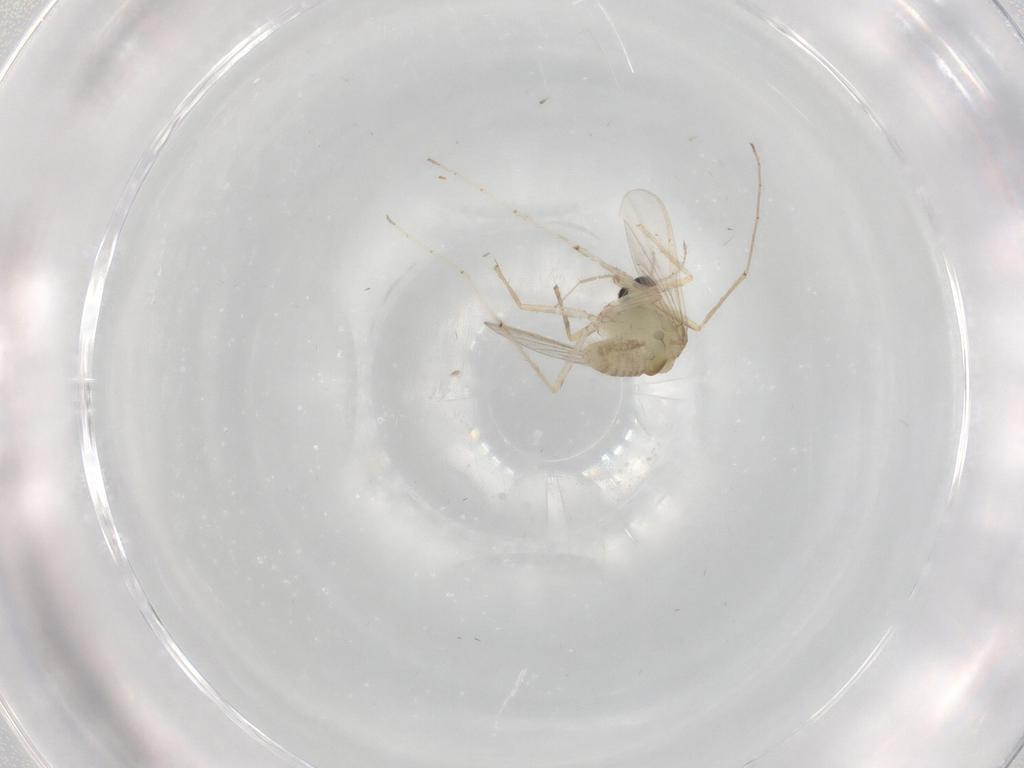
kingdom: Animalia
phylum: Arthropoda
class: Insecta
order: Diptera
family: Chironomidae
